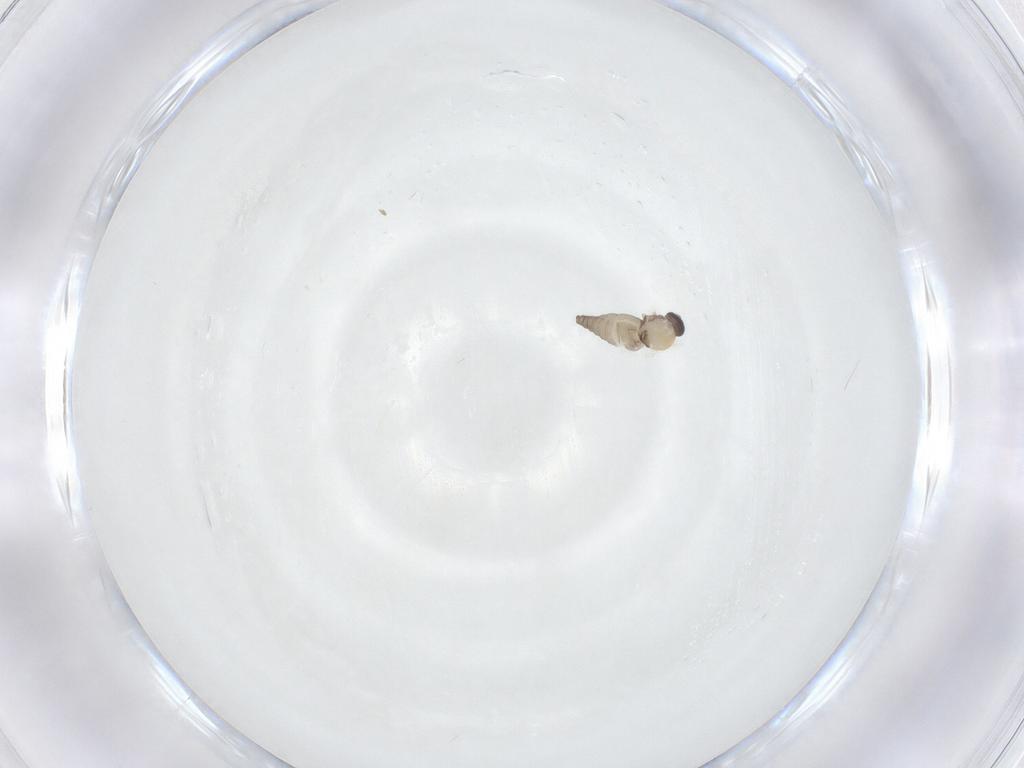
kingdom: Animalia
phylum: Arthropoda
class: Insecta
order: Diptera
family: Ceratopogonidae
